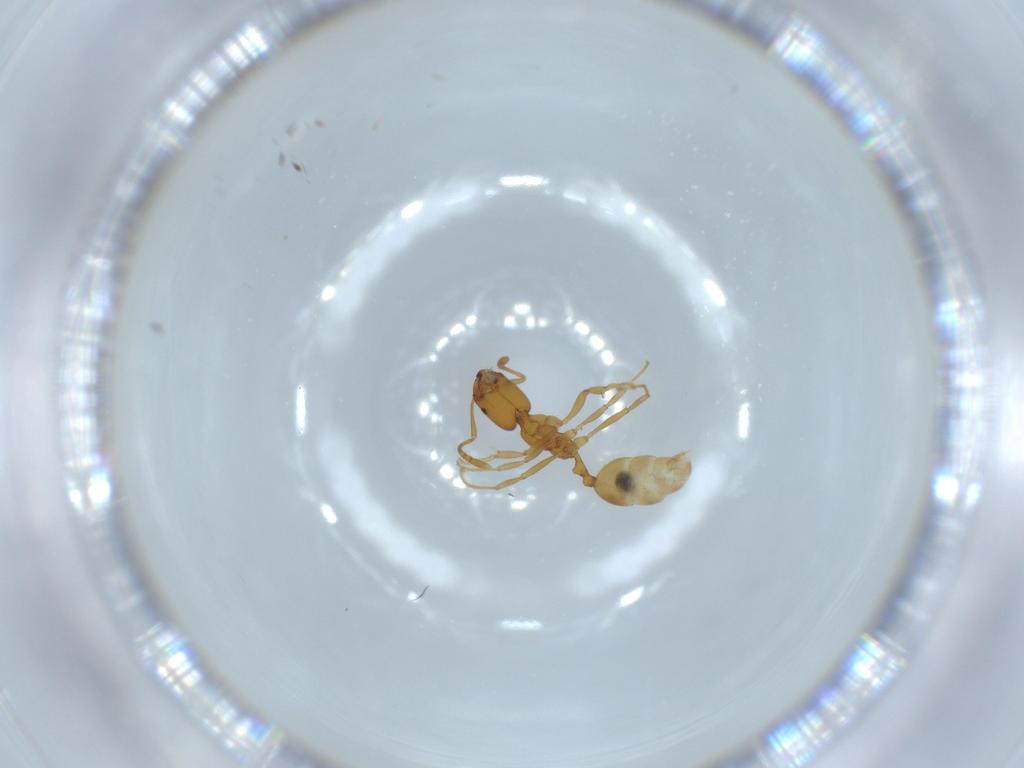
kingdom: Animalia
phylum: Arthropoda
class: Insecta
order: Hymenoptera
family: Formicidae
